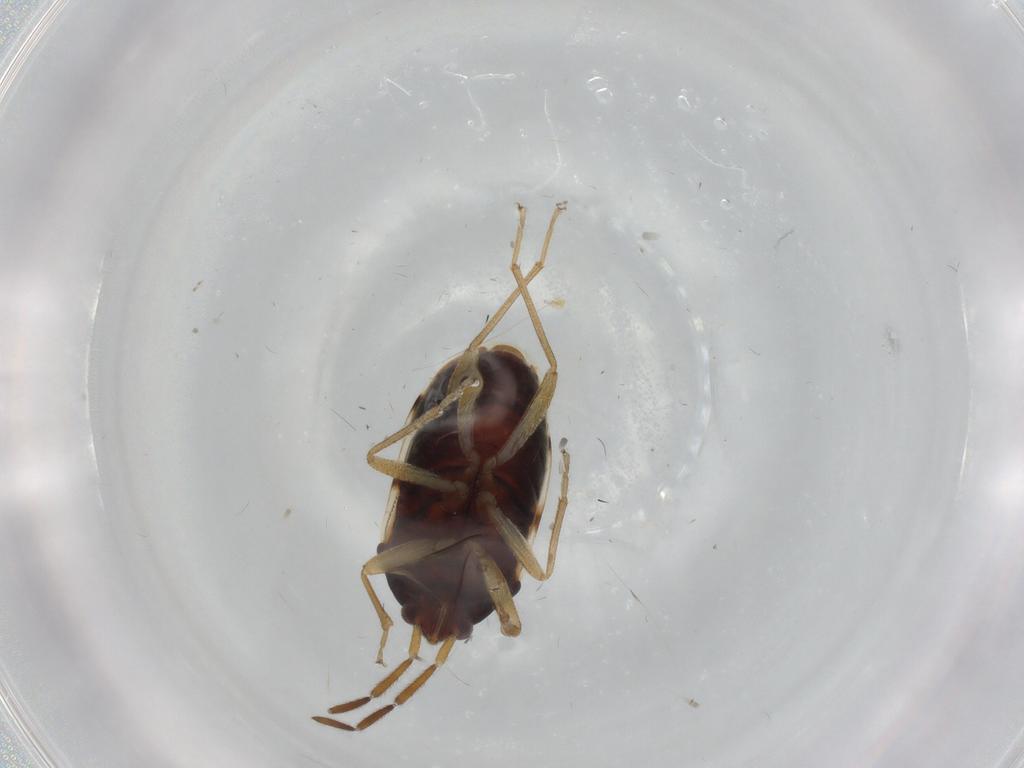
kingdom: Animalia
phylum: Arthropoda
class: Insecta
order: Hemiptera
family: Rhyparochromidae
